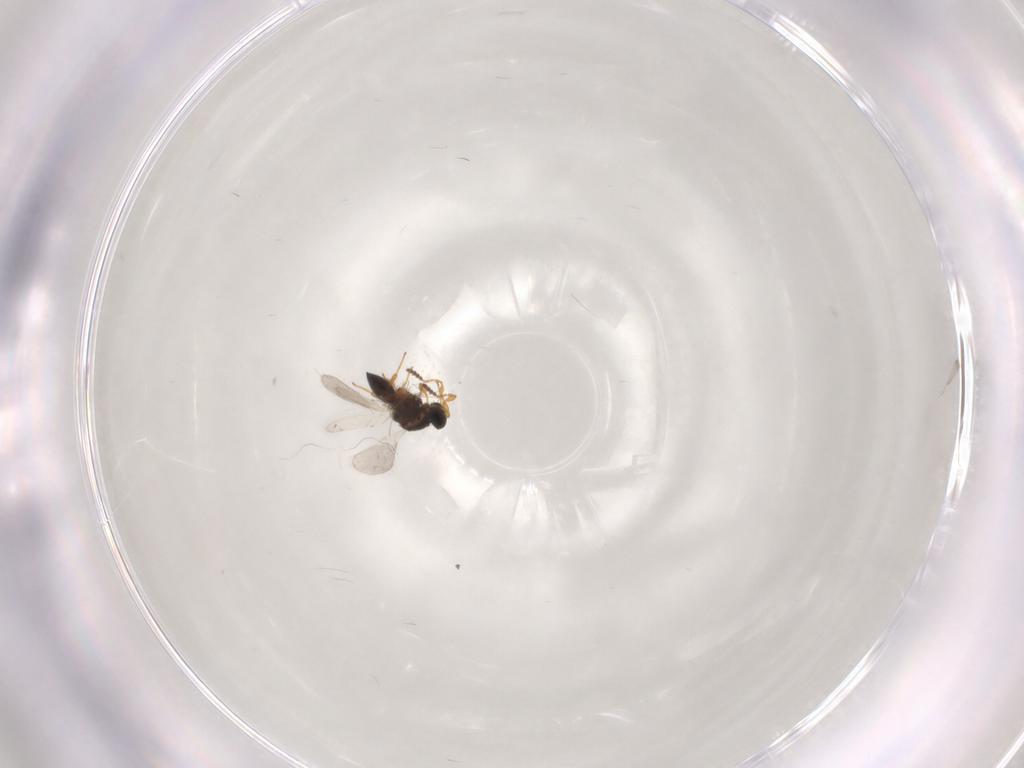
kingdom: Animalia
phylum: Arthropoda
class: Insecta
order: Hymenoptera
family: Platygastridae
